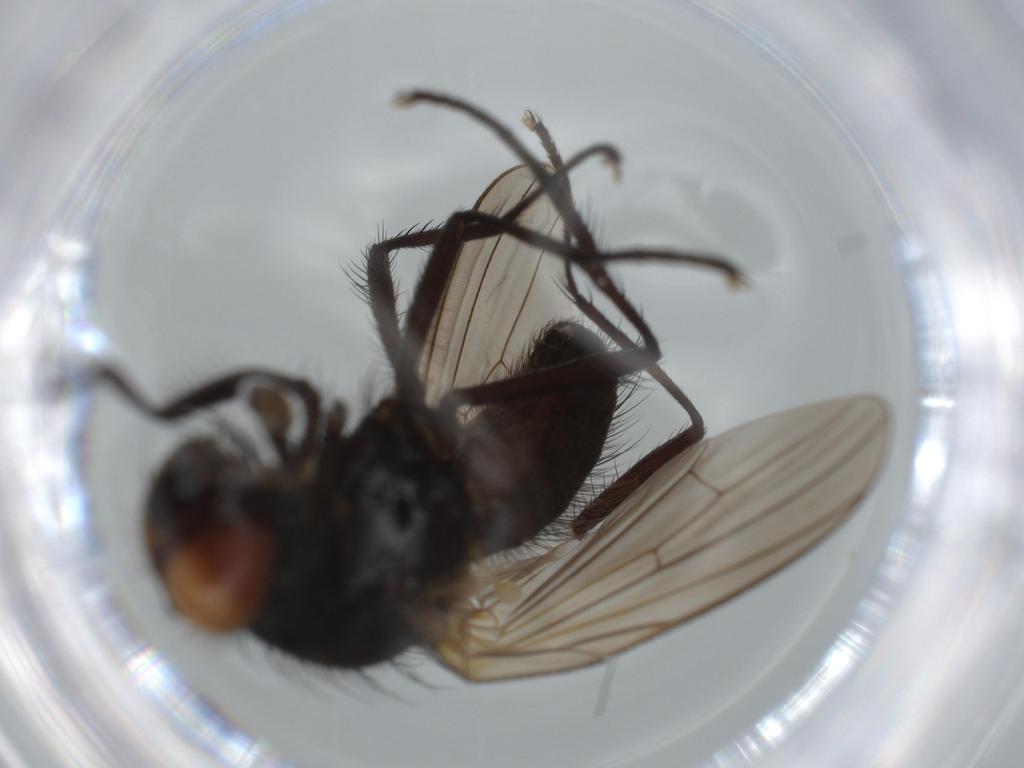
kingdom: Animalia
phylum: Arthropoda
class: Insecta
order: Diptera
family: Anthomyiidae
